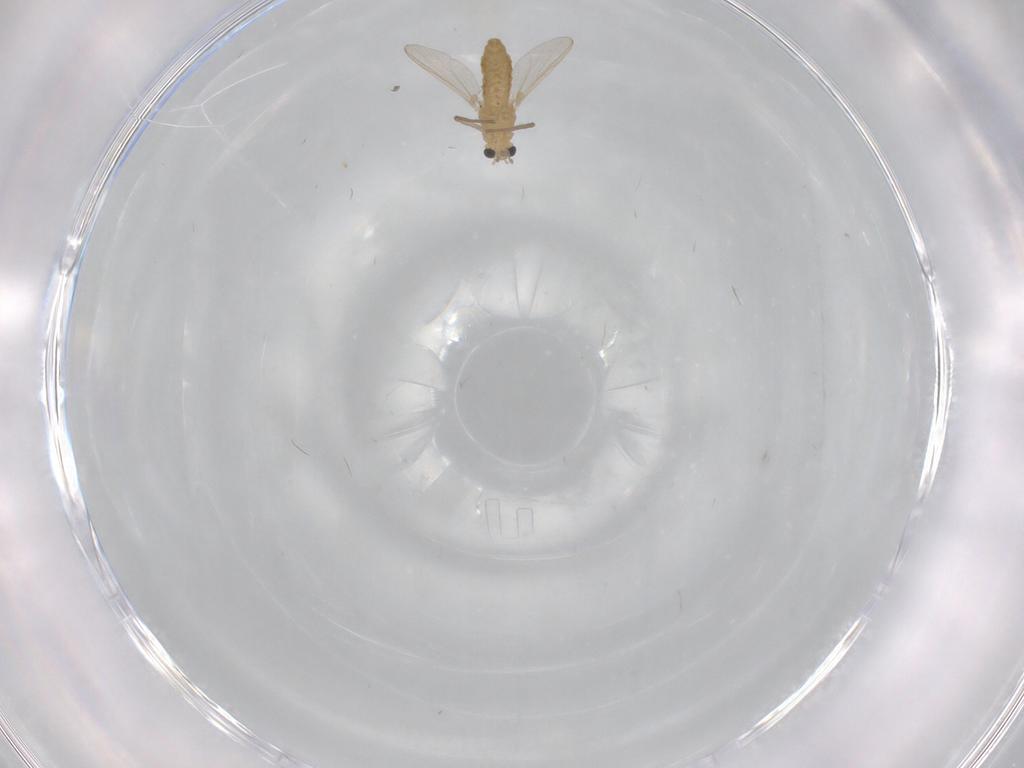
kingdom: Animalia
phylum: Arthropoda
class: Insecta
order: Diptera
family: Chironomidae
